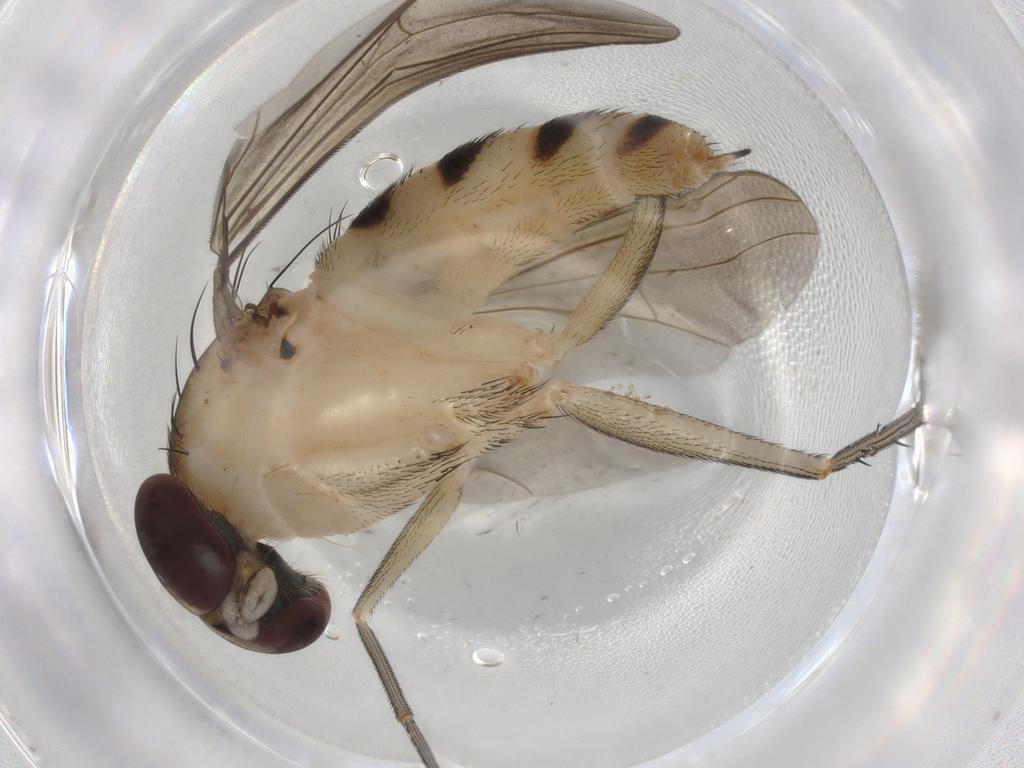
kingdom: Animalia
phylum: Arthropoda
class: Insecta
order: Diptera
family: Dolichopodidae
